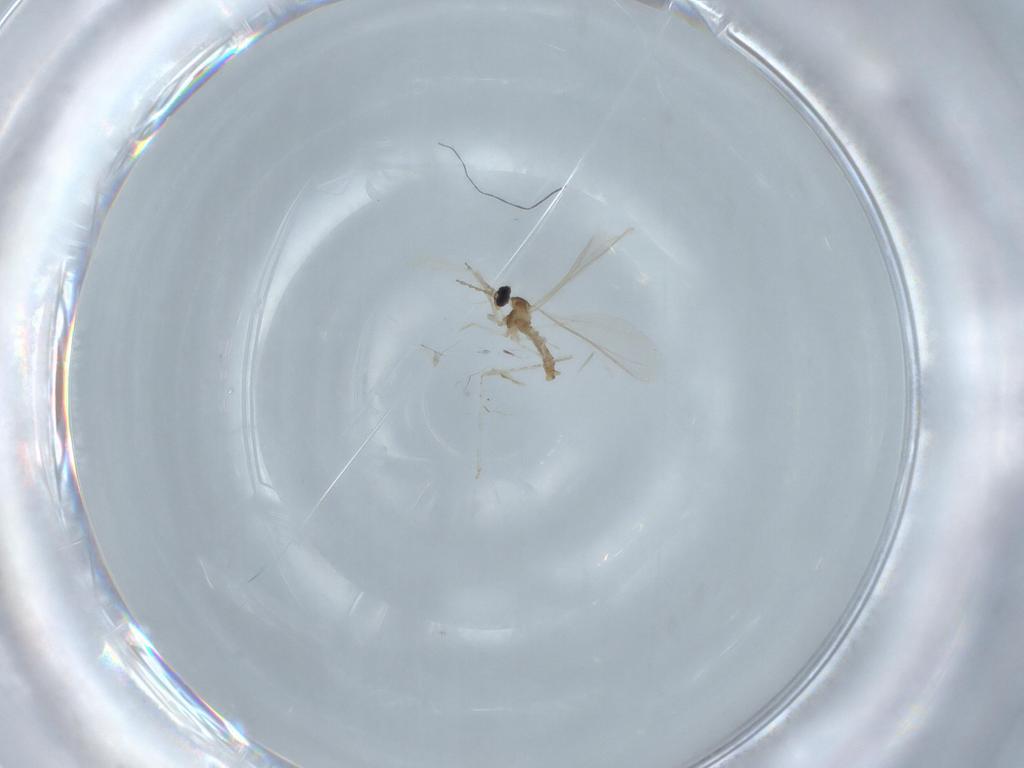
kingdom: Animalia
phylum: Arthropoda
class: Insecta
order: Diptera
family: Cecidomyiidae
